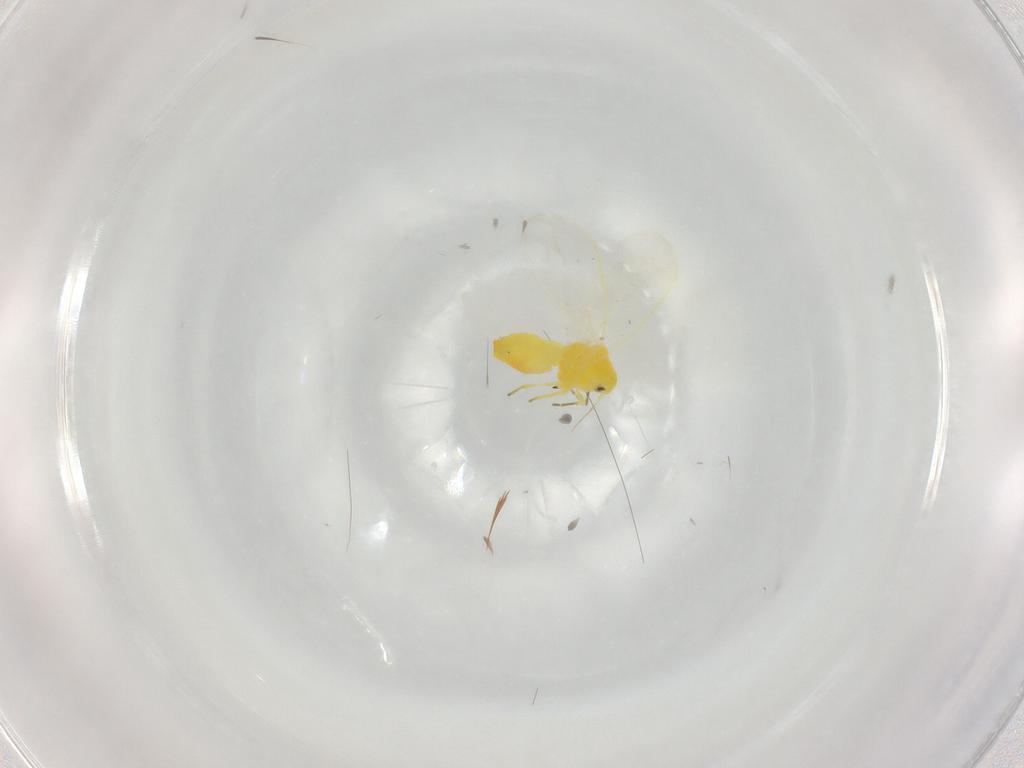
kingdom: Animalia
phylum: Arthropoda
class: Insecta
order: Hemiptera
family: Aleyrodidae
